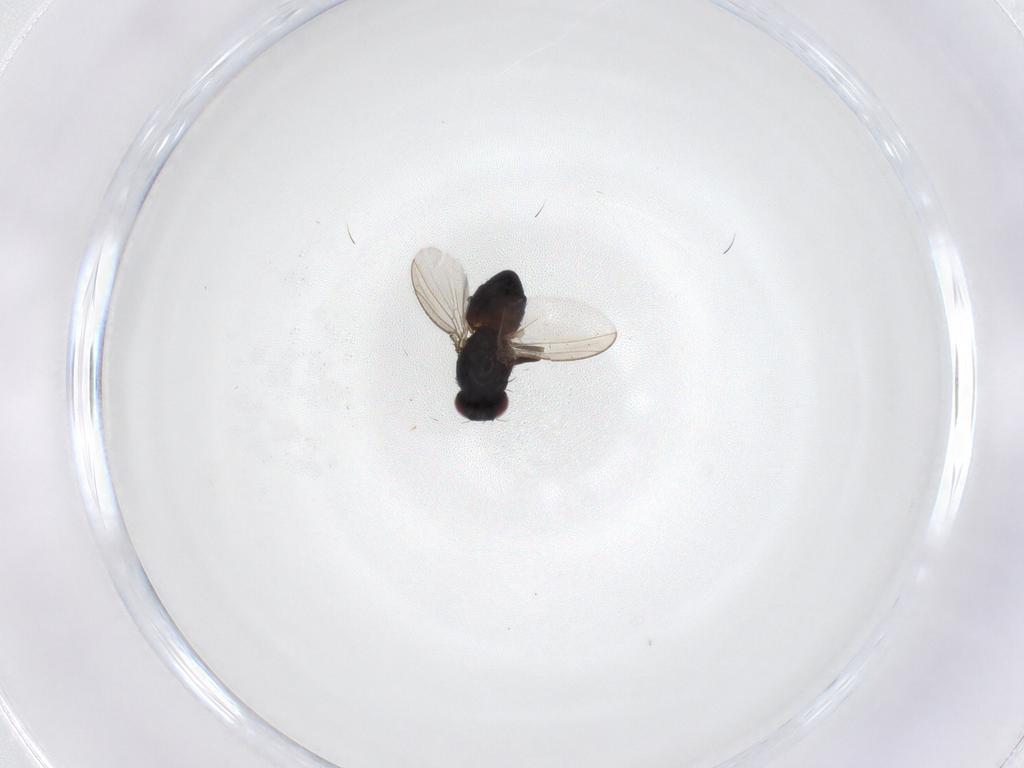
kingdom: Animalia
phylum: Arthropoda
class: Insecta
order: Diptera
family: Carnidae
